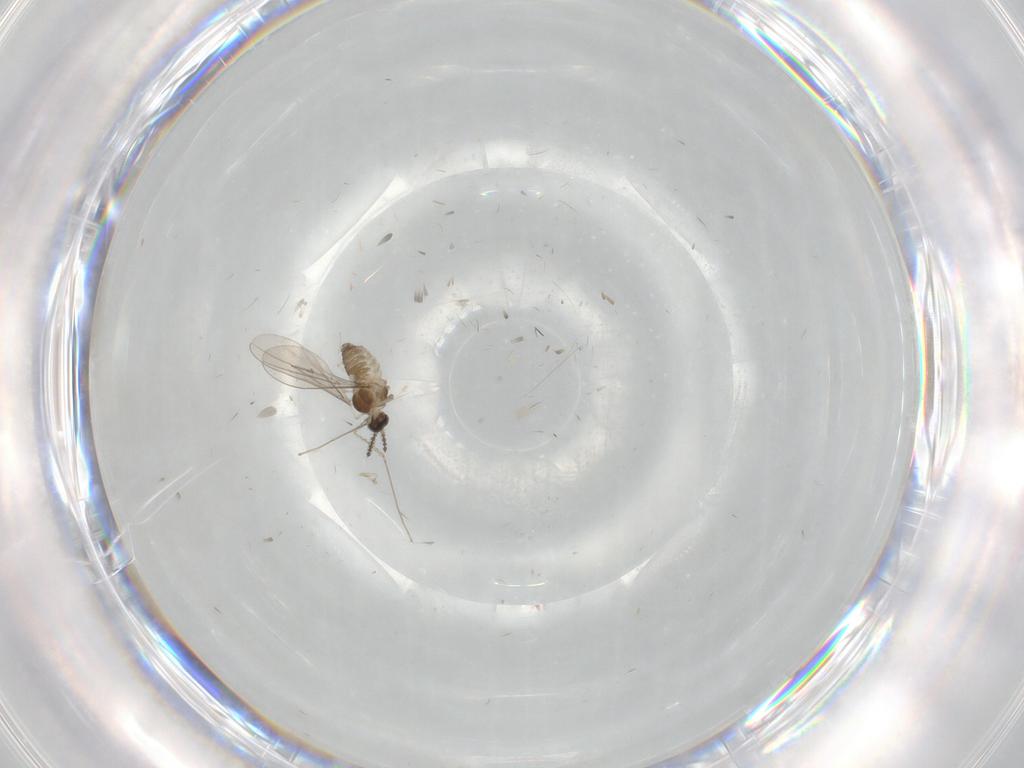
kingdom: Animalia
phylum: Arthropoda
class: Insecta
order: Diptera
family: Cecidomyiidae
